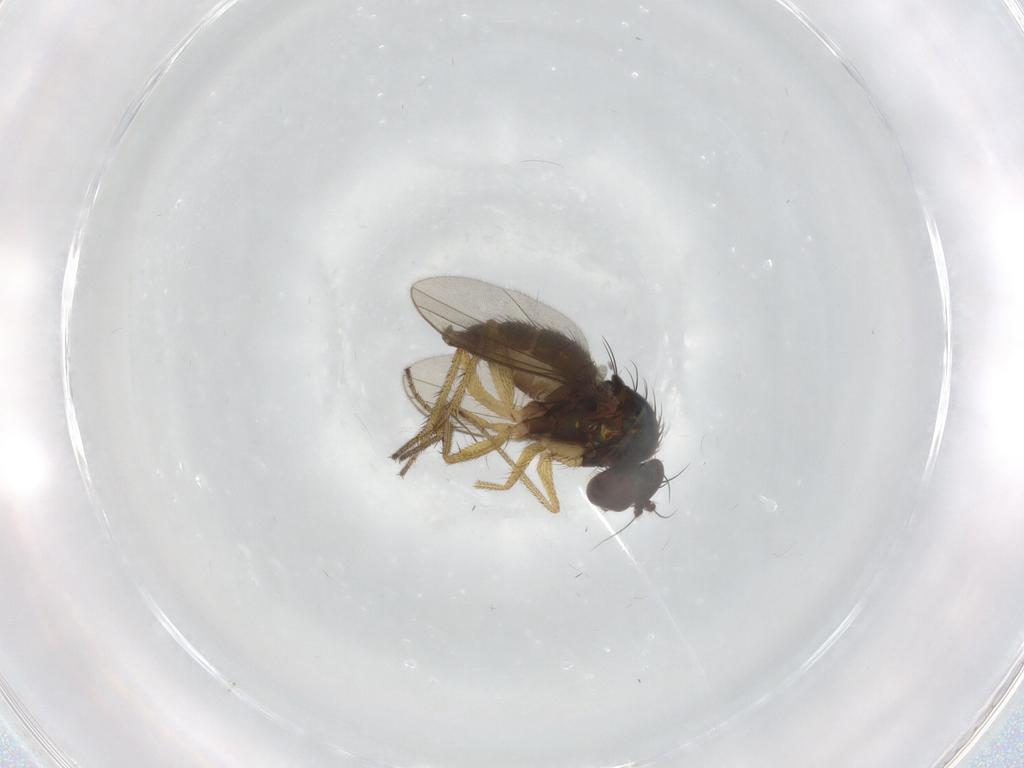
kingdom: Animalia
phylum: Arthropoda
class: Insecta
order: Diptera
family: Dolichopodidae
